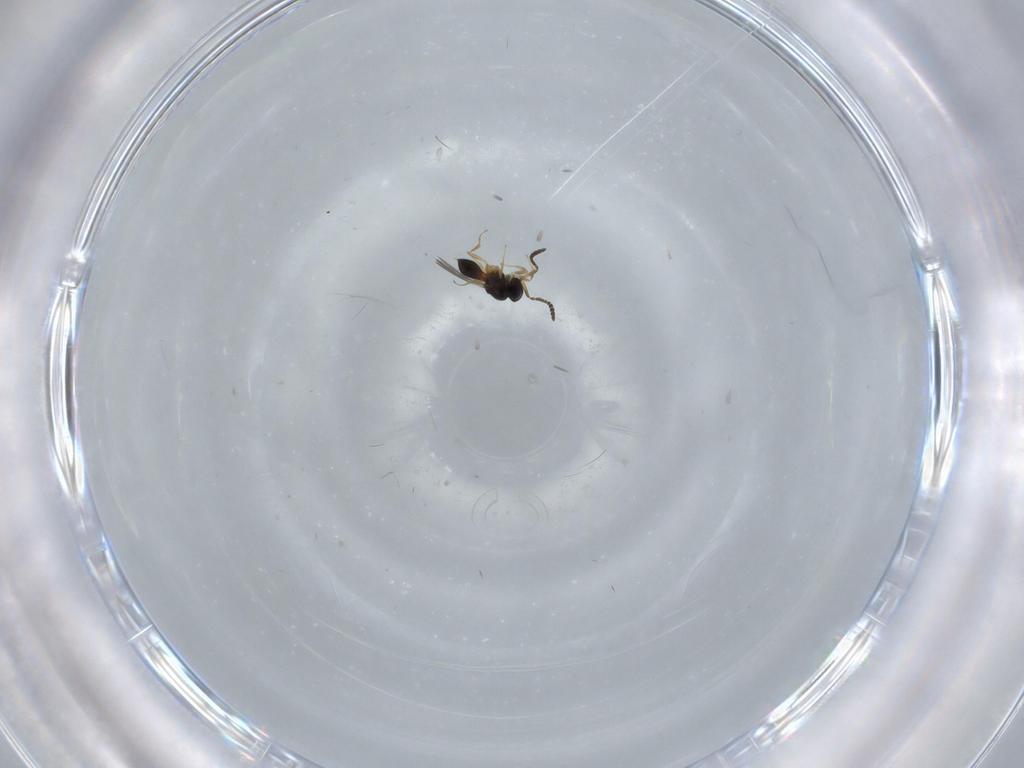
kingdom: Animalia
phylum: Arthropoda
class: Insecta
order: Hymenoptera
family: Scelionidae
